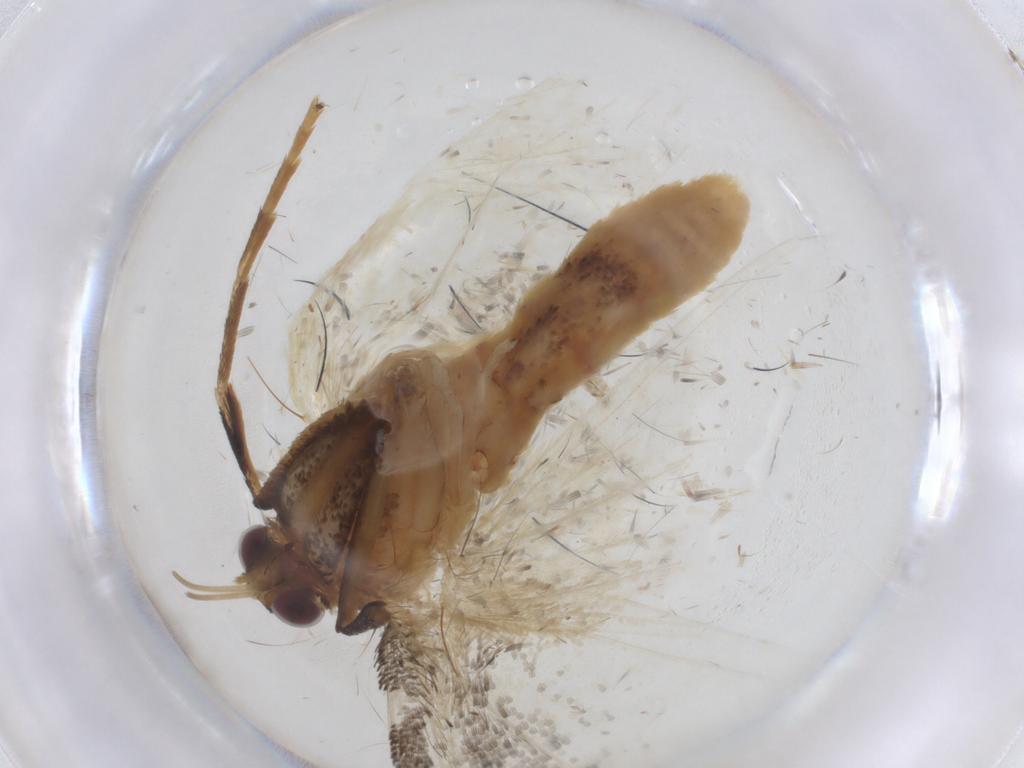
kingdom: Animalia
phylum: Arthropoda
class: Insecta
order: Lepidoptera
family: Geometridae
